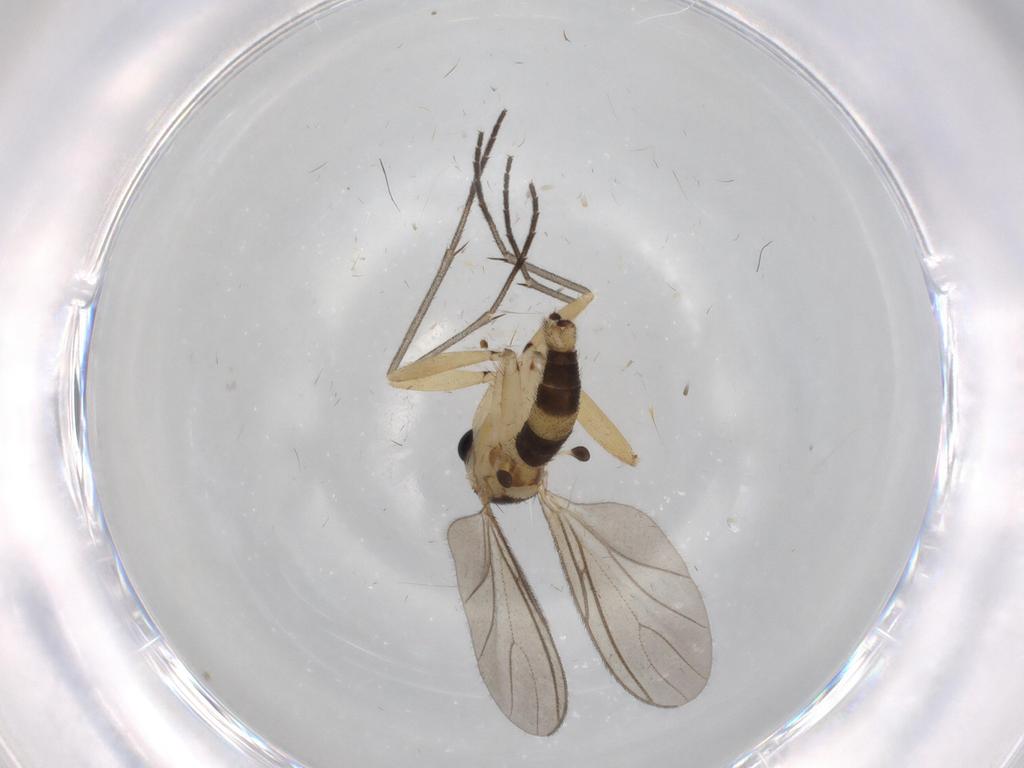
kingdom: Animalia
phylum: Arthropoda
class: Insecta
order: Diptera
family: Sciaridae
